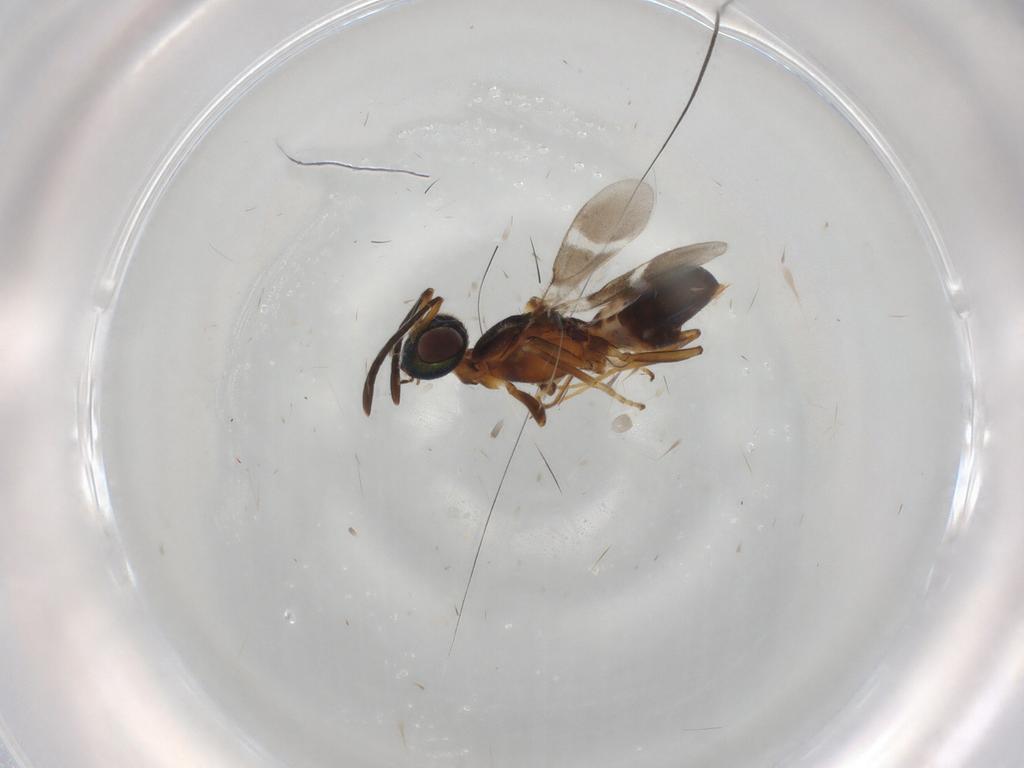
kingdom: Animalia
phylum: Arthropoda
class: Insecta
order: Hymenoptera
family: Eupelmidae
